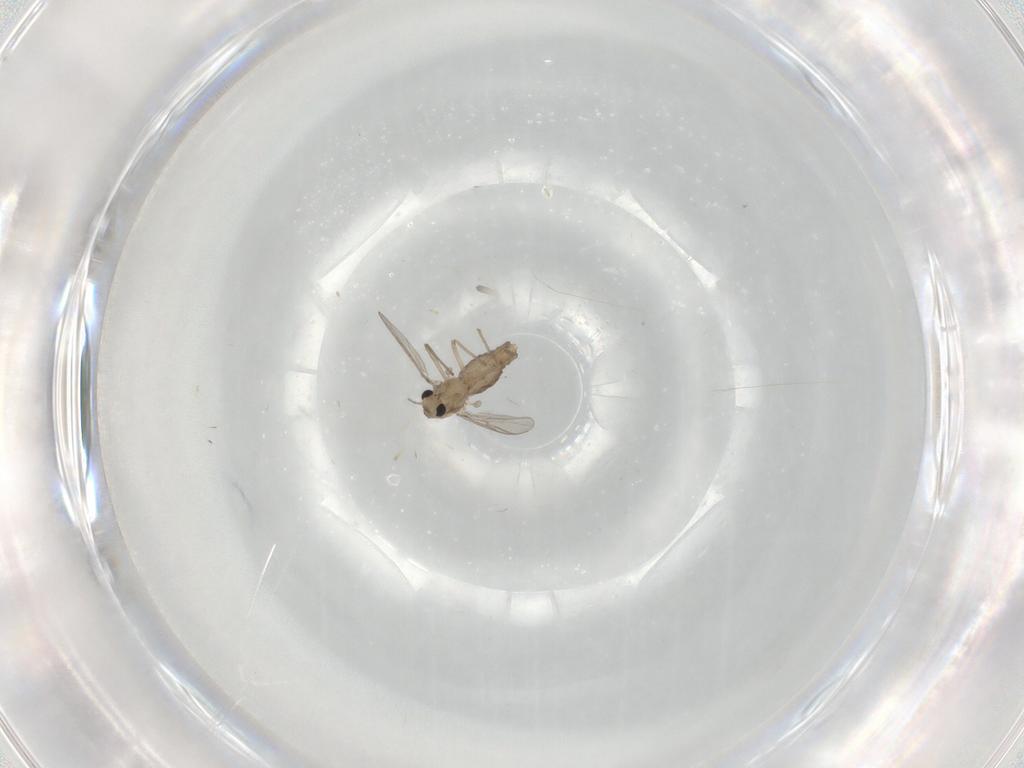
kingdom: Animalia
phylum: Arthropoda
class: Insecta
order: Diptera
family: Chironomidae
